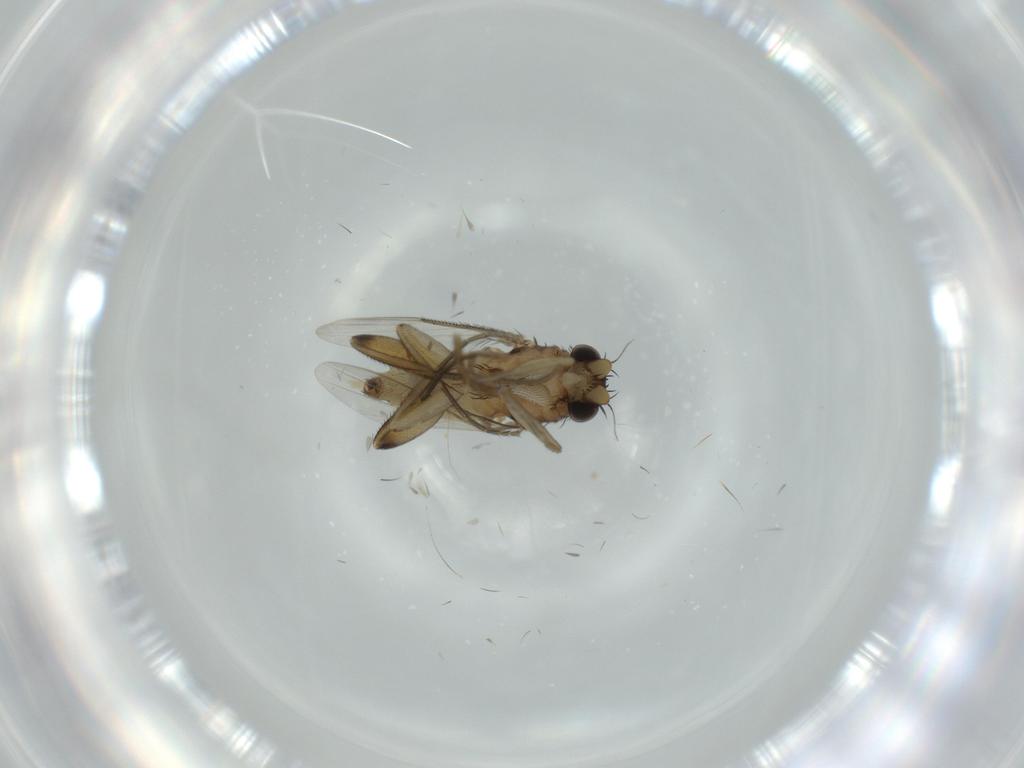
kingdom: Animalia
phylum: Arthropoda
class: Insecta
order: Diptera
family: Phoridae
